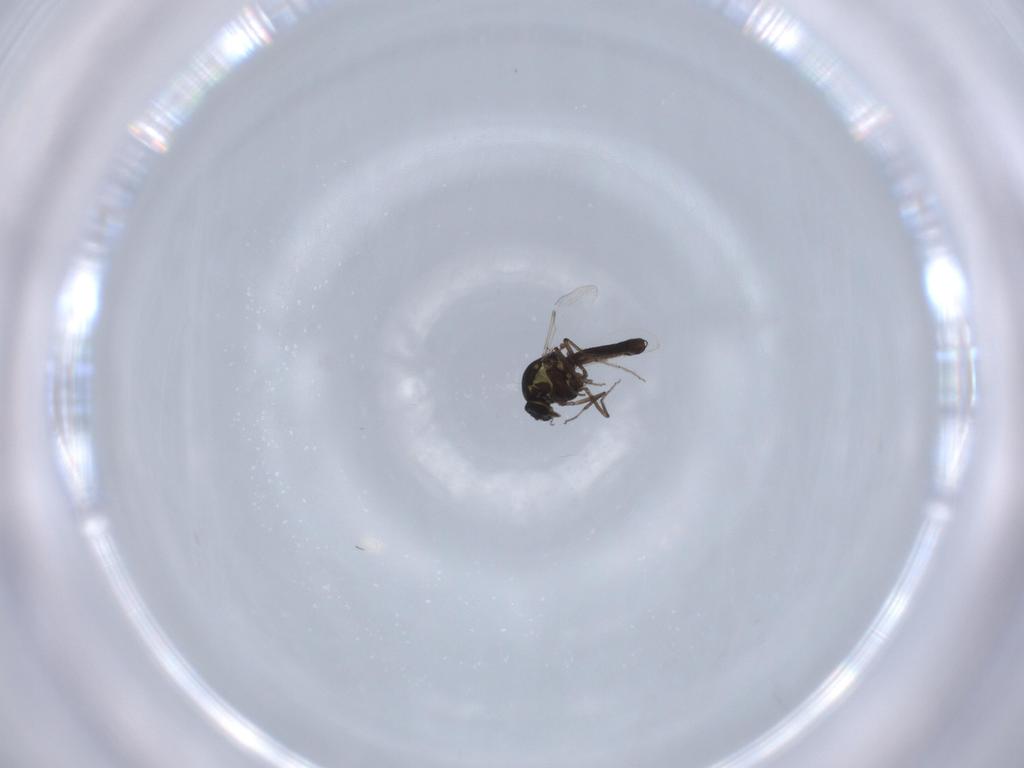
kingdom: Animalia
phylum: Arthropoda
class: Insecta
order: Diptera
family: Ceratopogonidae
